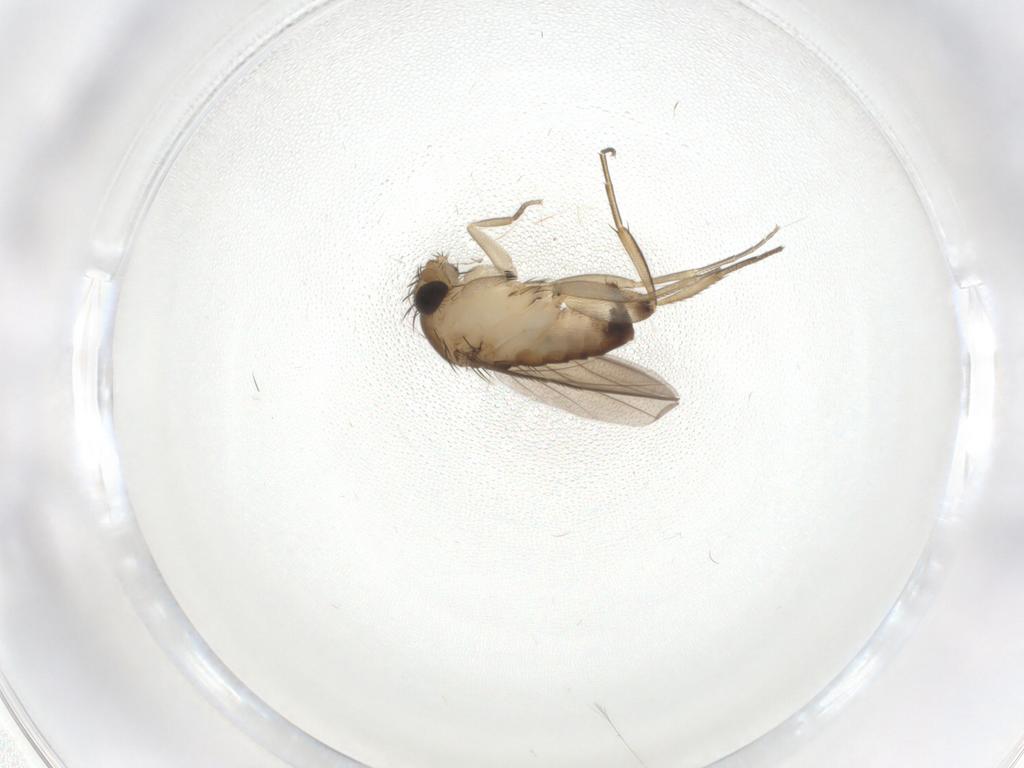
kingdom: Animalia
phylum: Arthropoda
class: Insecta
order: Diptera
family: Phoridae
